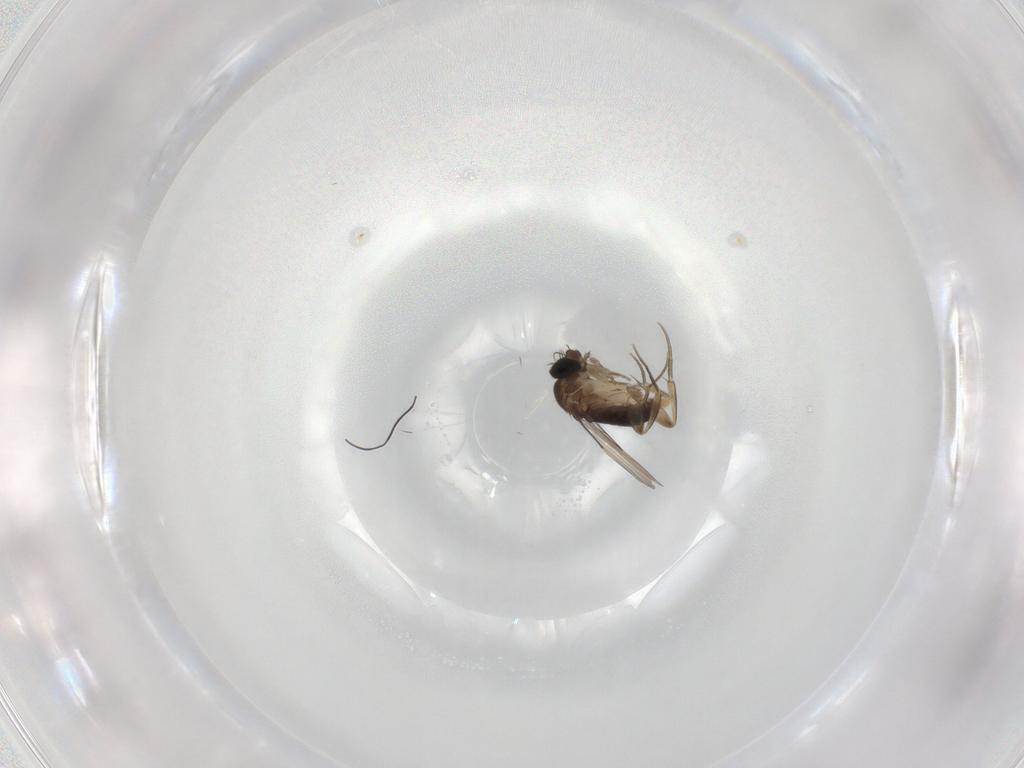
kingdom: Animalia
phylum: Arthropoda
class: Insecta
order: Diptera
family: Phoridae
